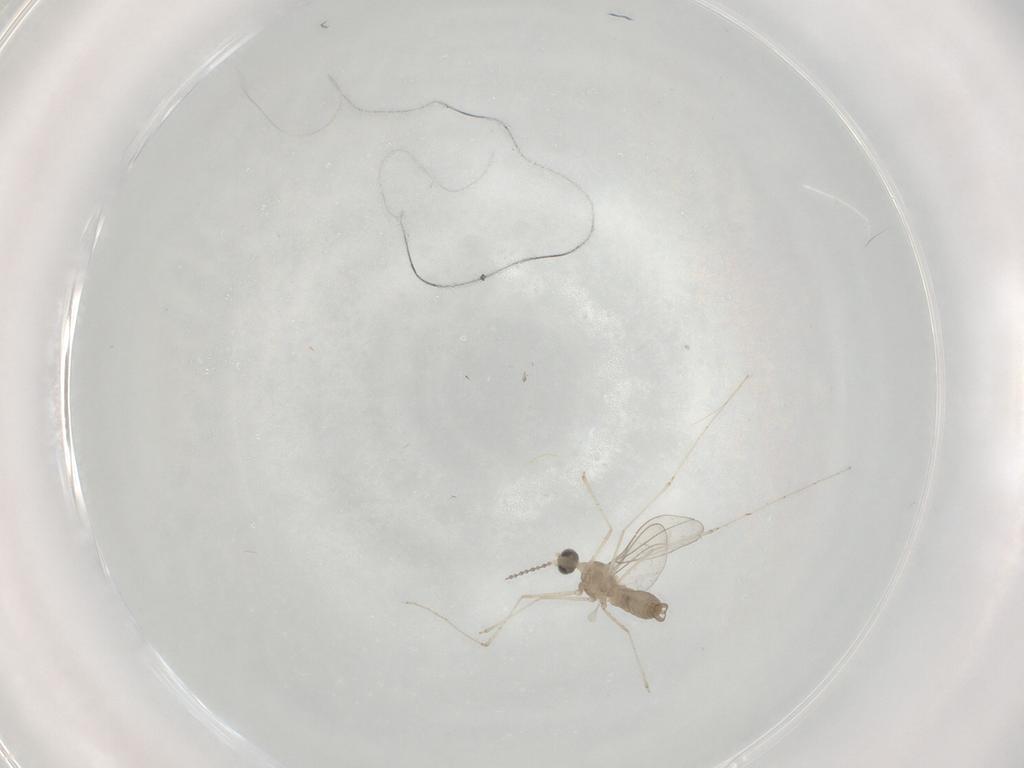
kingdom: Animalia
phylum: Arthropoda
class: Insecta
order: Diptera
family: Cecidomyiidae
